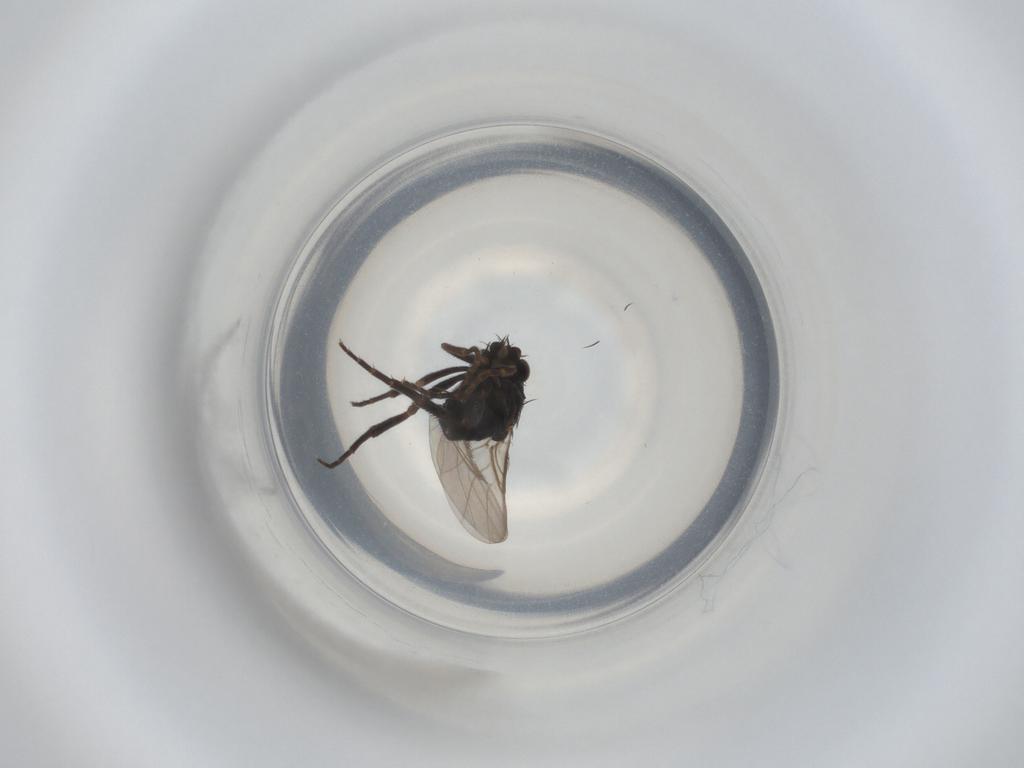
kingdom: Animalia
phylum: Arthropoda
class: Insecta
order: Diptera
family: Phoridae
